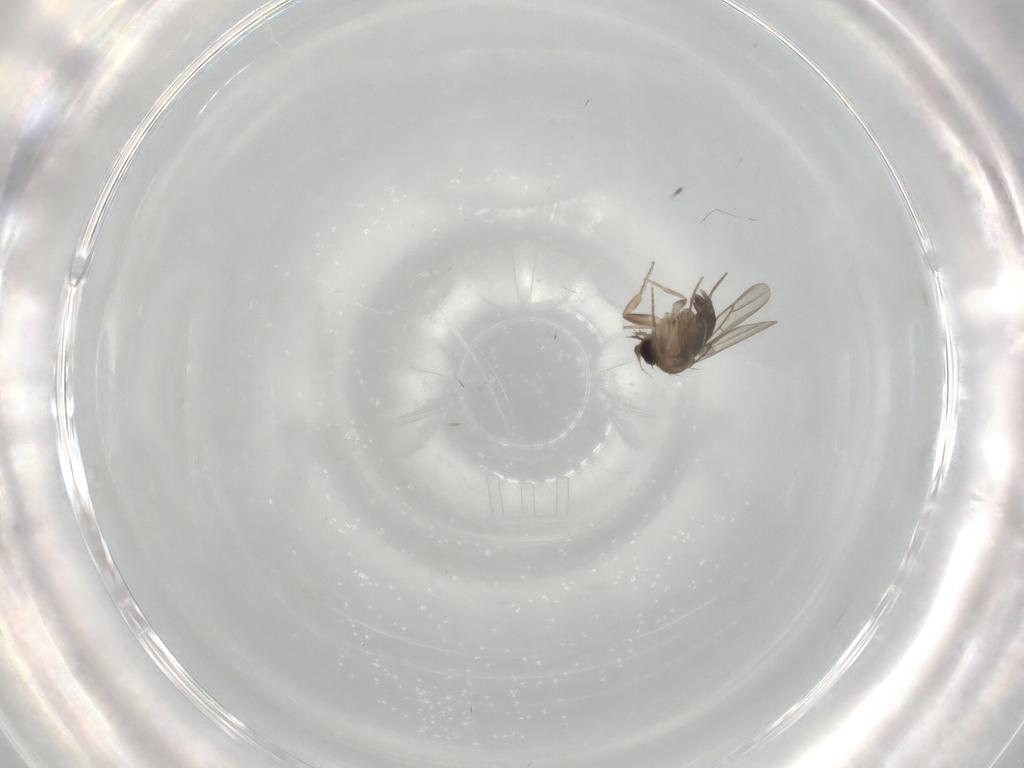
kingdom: Animalia
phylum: Arthropoda
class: Insecta
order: Diptera
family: Phoridae
